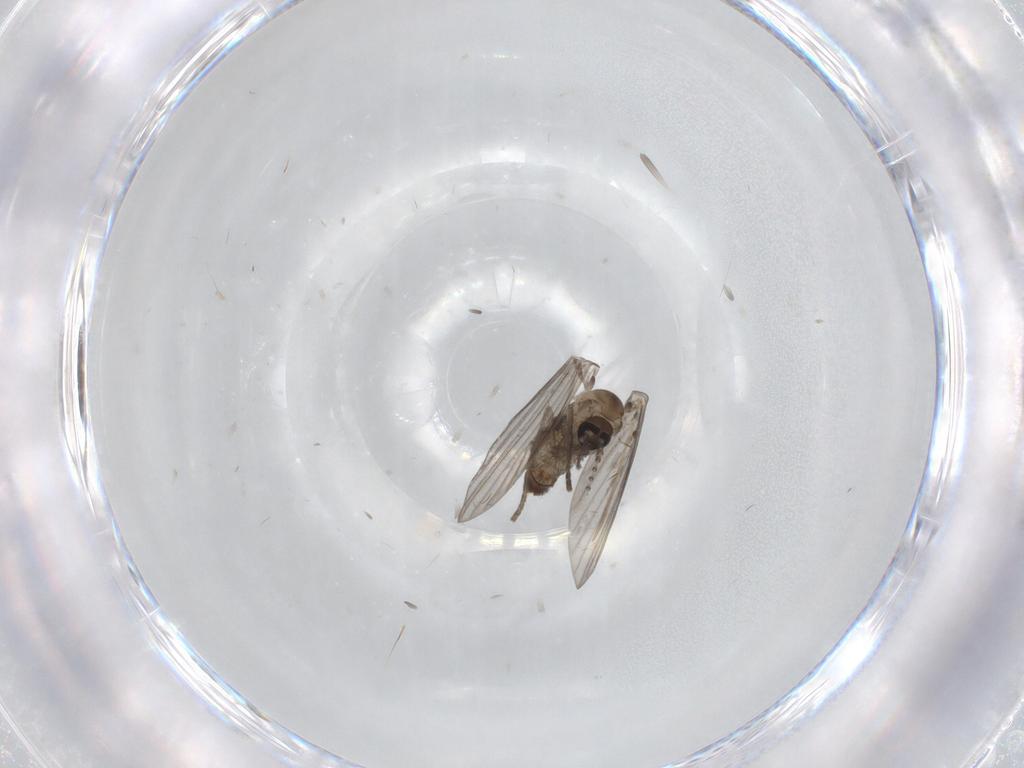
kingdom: Animalia
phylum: Arthropoda
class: Insecta
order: Diptera
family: Psychodidae
